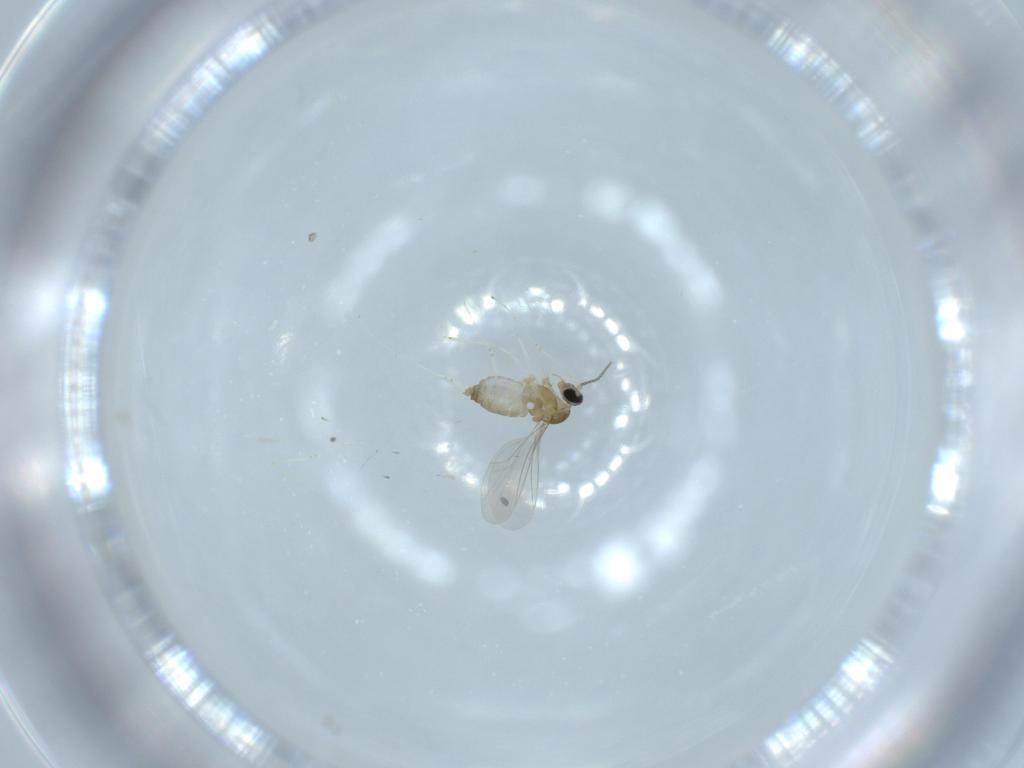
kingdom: Animalia
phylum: Arthropoda
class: Insecta
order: Diptera
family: Cecidomyiidae
